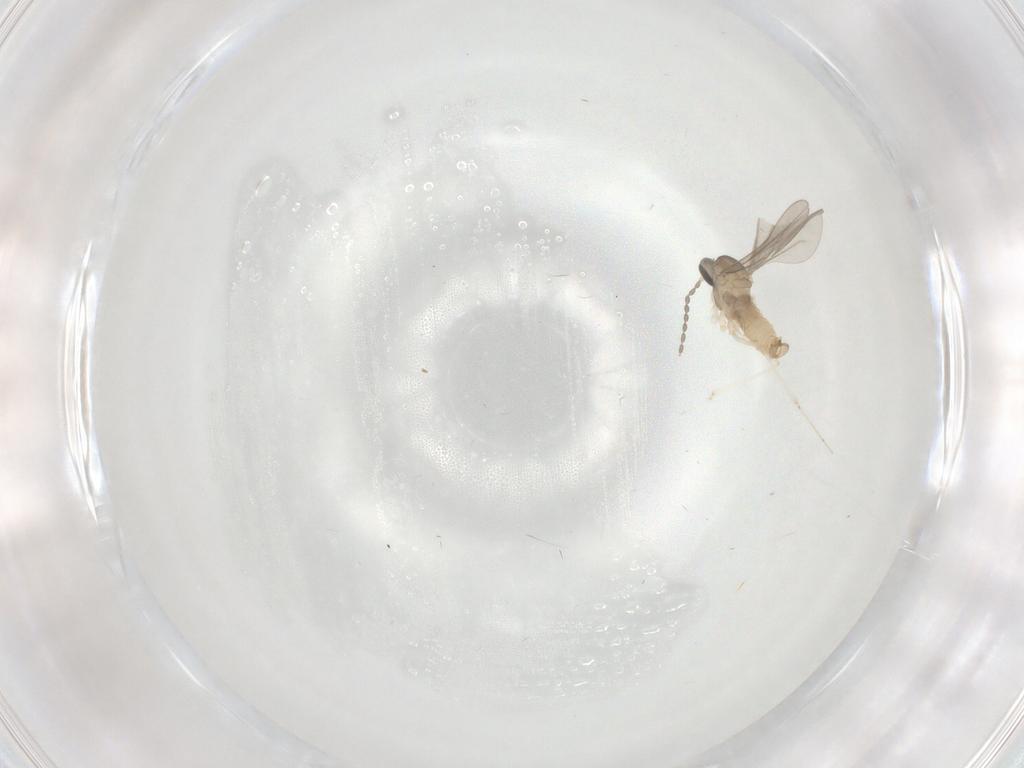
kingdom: Animalia
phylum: Arthropoda
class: Insecta
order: Diptera
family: Cecidomyiidae
